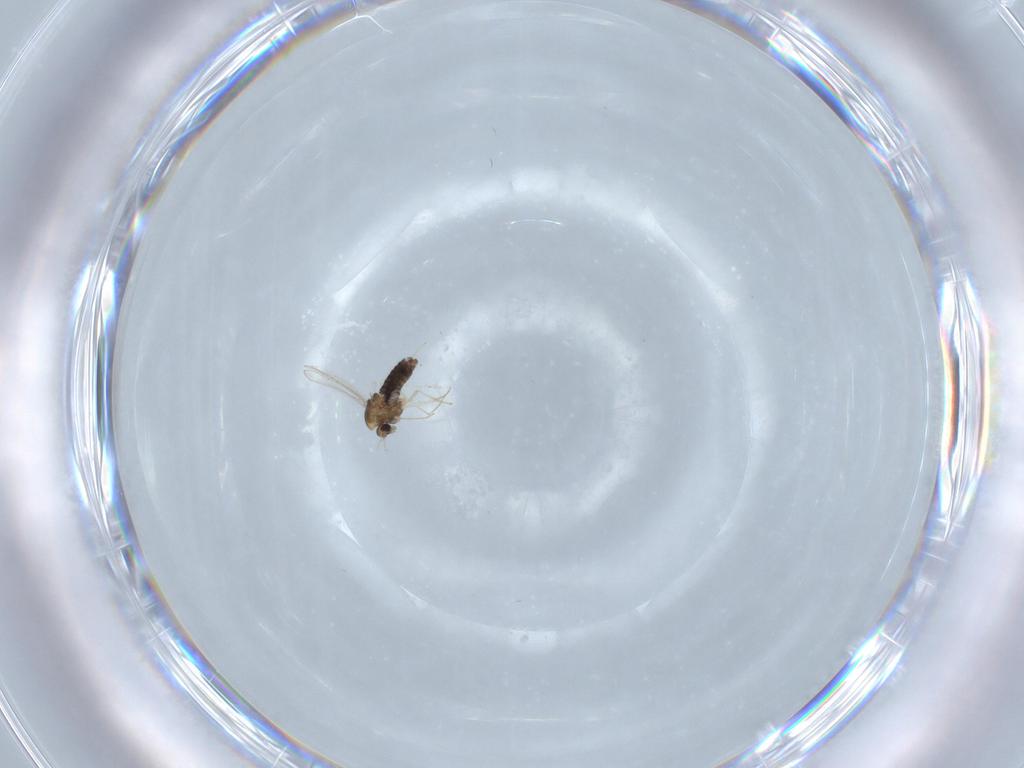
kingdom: Animalia
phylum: Arthropoda
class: Insecta
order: Diptera
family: Chironomidae
